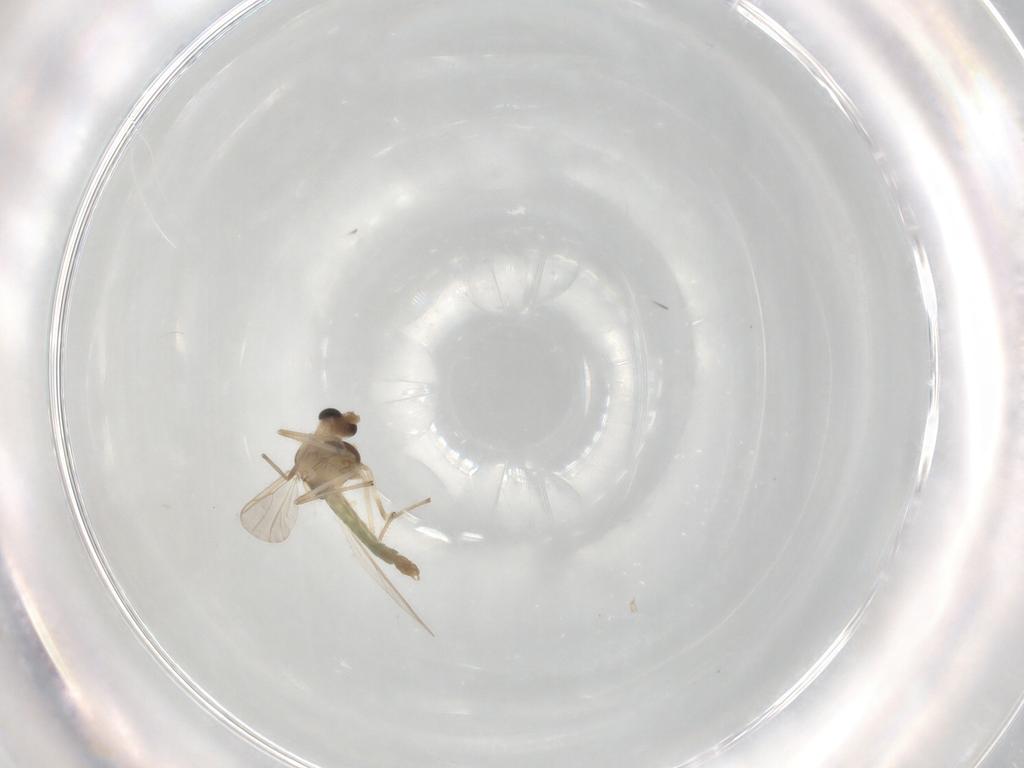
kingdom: Animalia
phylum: Arthropoda
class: Insecta
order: Diptera
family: Chironomidae
